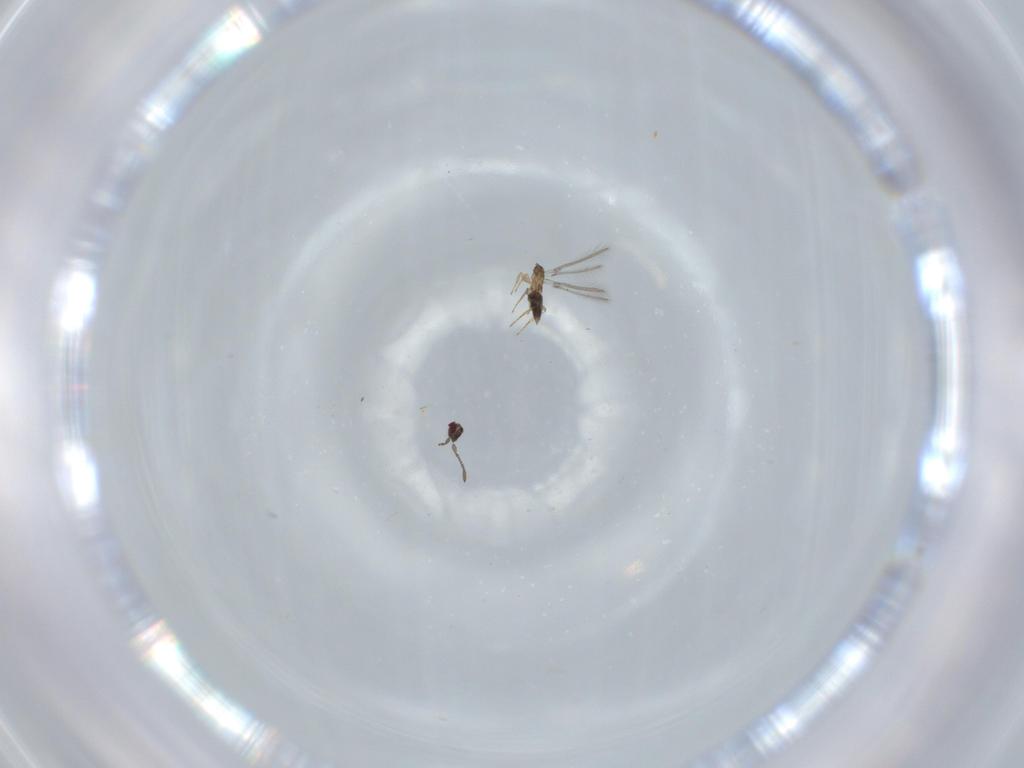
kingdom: Animalia
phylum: Arthropoda
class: Insecta
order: Hymenoptera
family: Mymaridae
